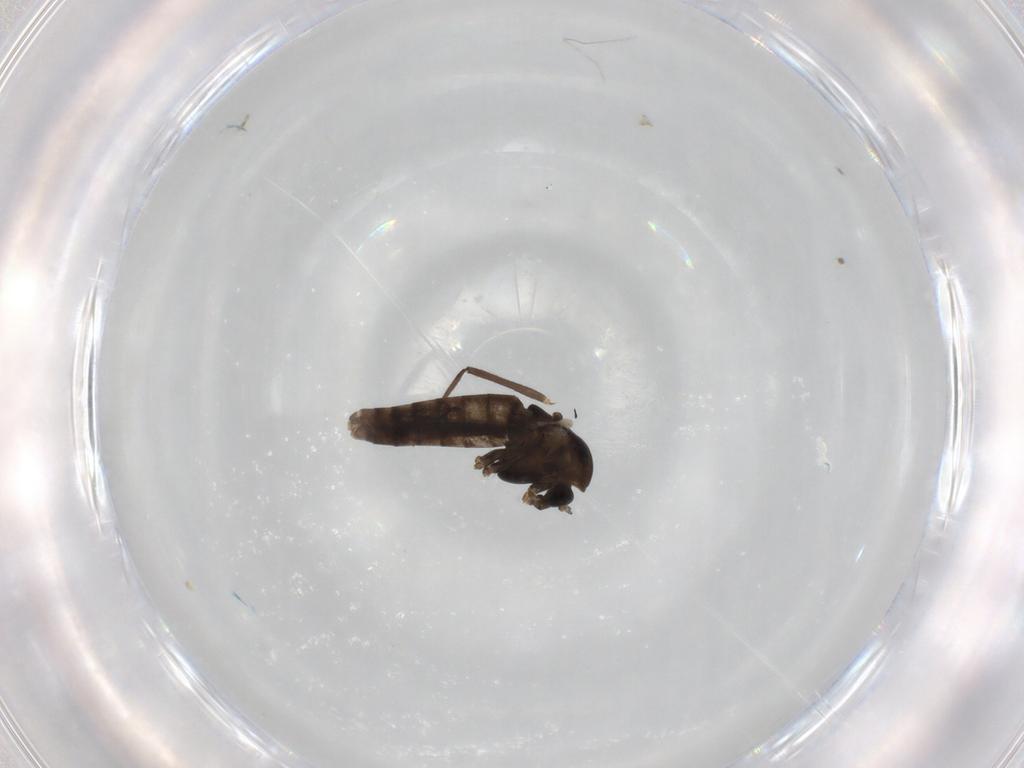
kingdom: Animalia
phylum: Arthropoda
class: Insecta
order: Diptera
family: Chironomidae
